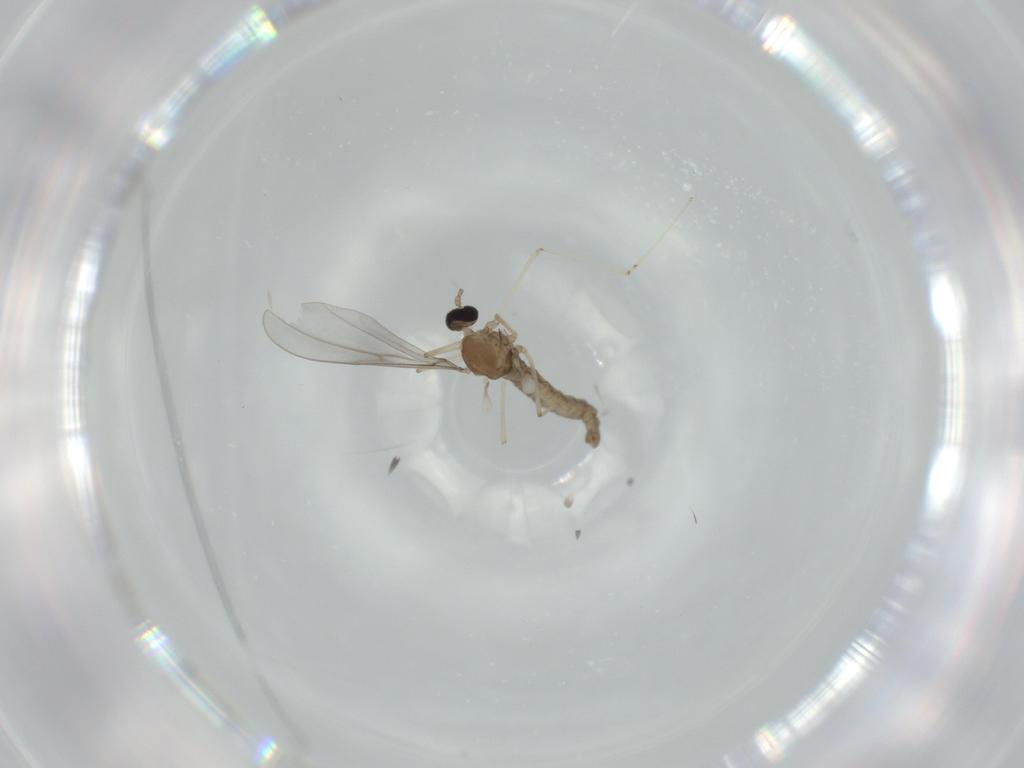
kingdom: Animalia
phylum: Arthropoda
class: Insecta
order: Diptera
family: Cecidomyiidae
